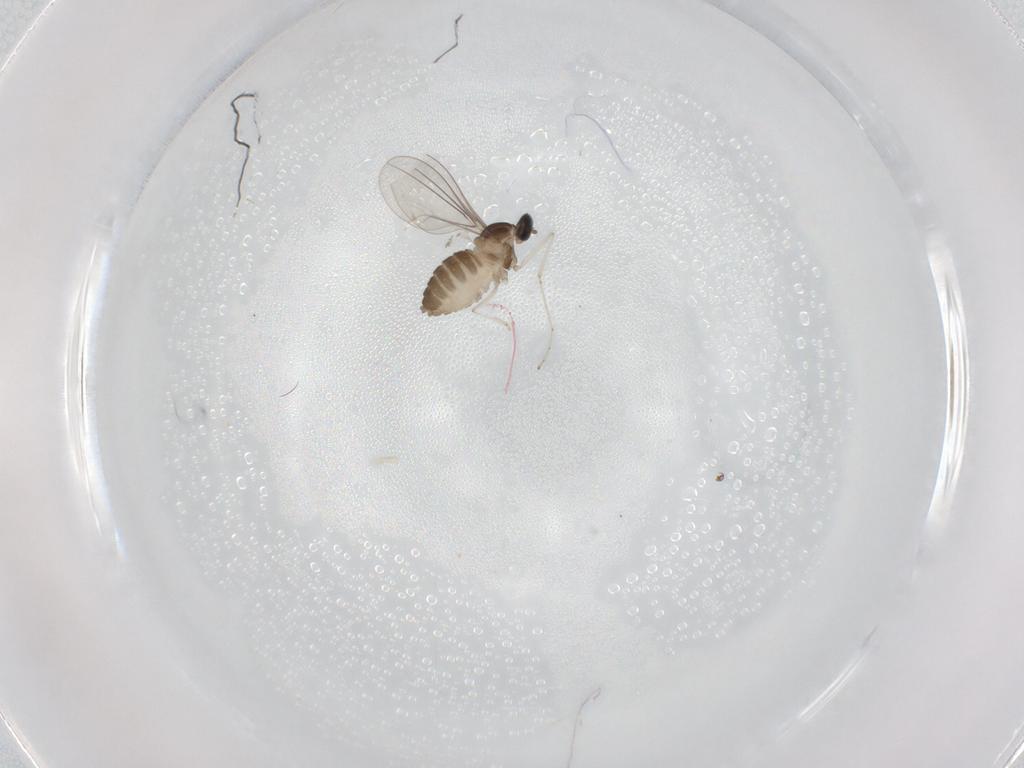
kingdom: Animalia
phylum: Arthropoda
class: Insecta
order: Diptera
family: Cecidomyiidae
